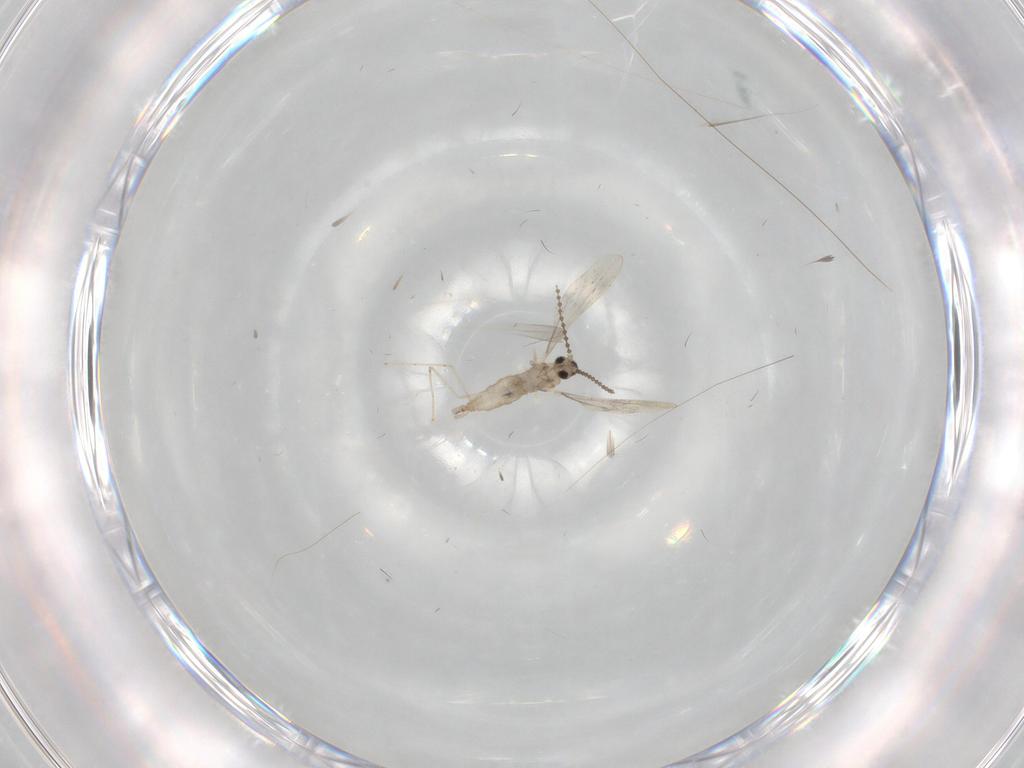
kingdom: Animalia
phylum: Arthropoda
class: Insecta
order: Diptera
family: Cecidomyiidae
